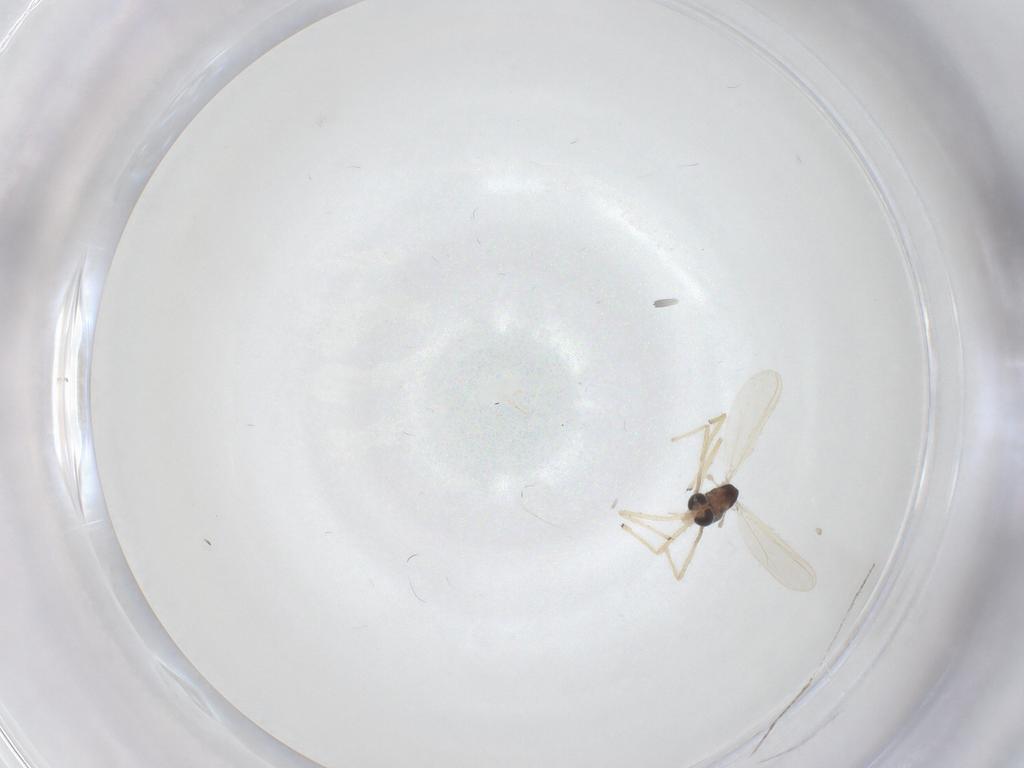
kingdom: Animalia
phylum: Arthropoda
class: Insecta
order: Diptera
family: Chironomidae
